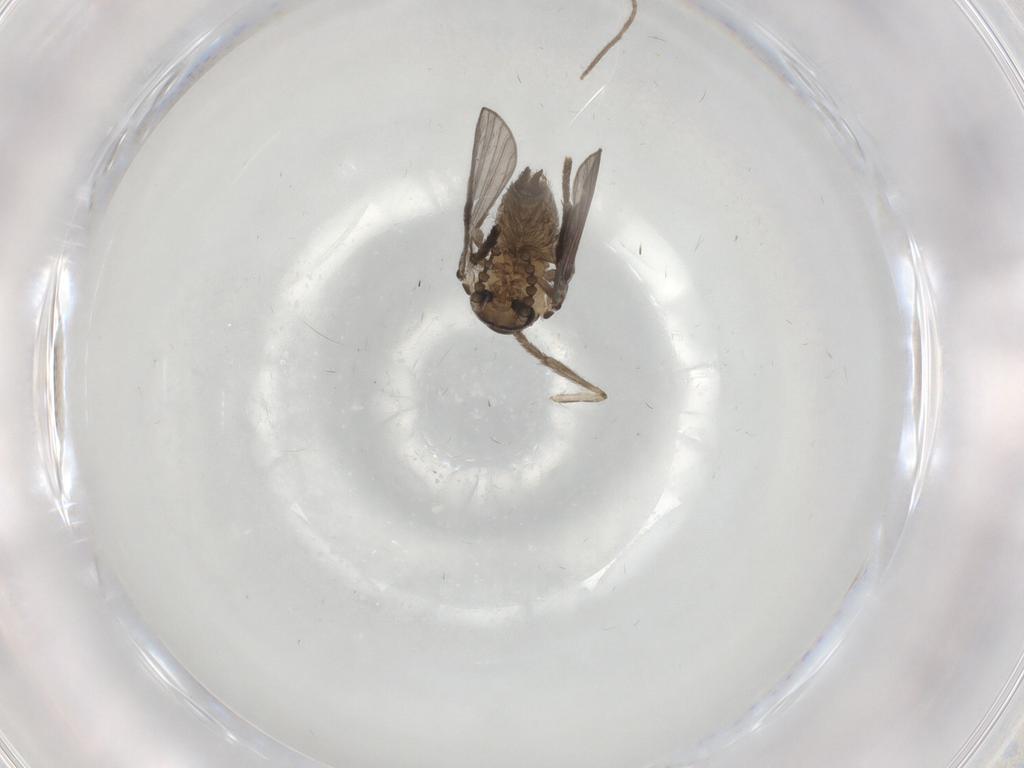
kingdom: Animalia
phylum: Arthropoda
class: Insecta
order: Diptera
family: Psychodidae
